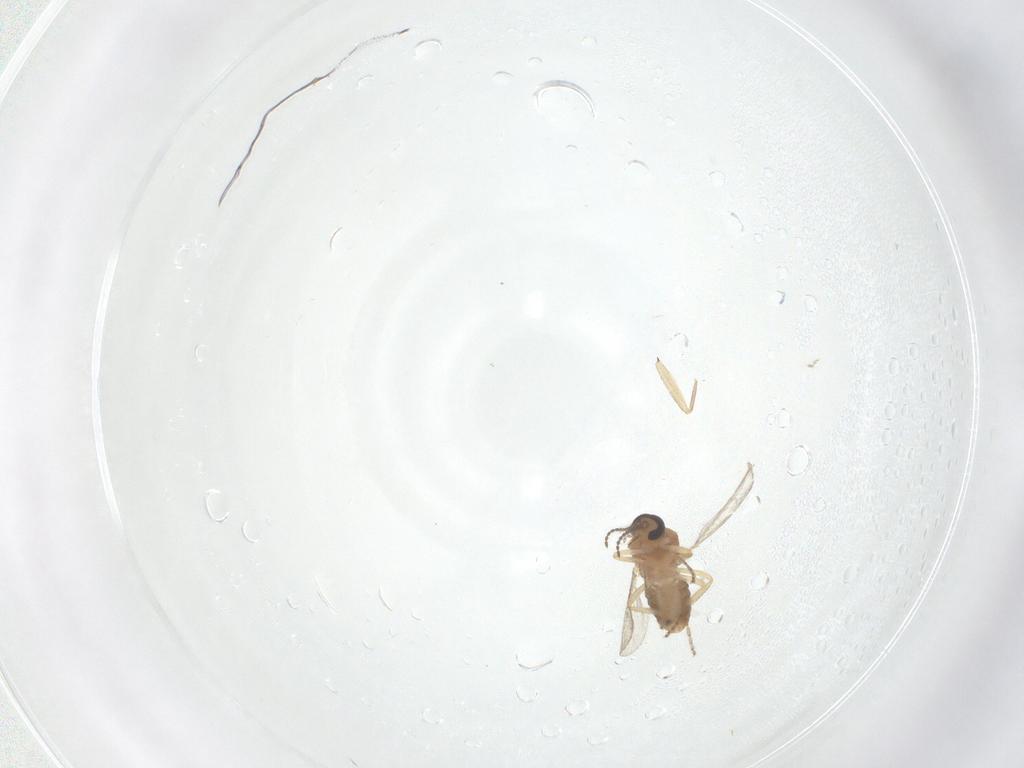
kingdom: Animalia
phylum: Arthropoda
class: Insecta
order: Diptera
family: Ceratopogonidae
